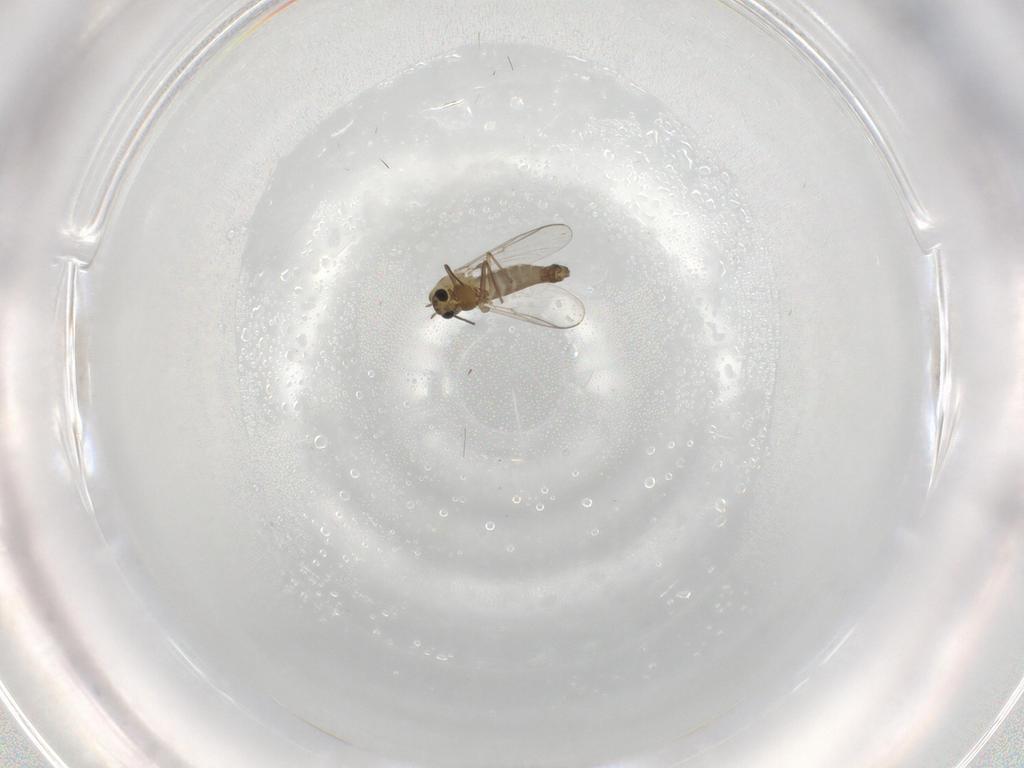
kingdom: Animalia
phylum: Arthropoda
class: Insecta
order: Diptera
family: Chironomidae
